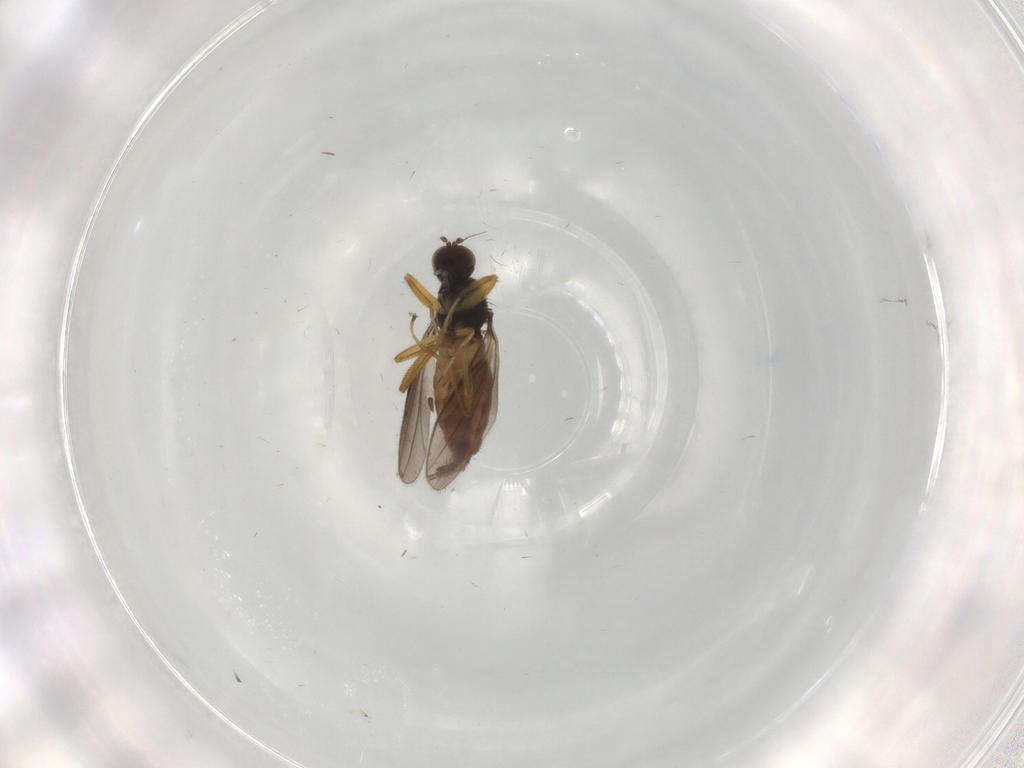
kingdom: Animalia
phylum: Arthropoda
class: Insecta
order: Diptera
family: Hybotidae
